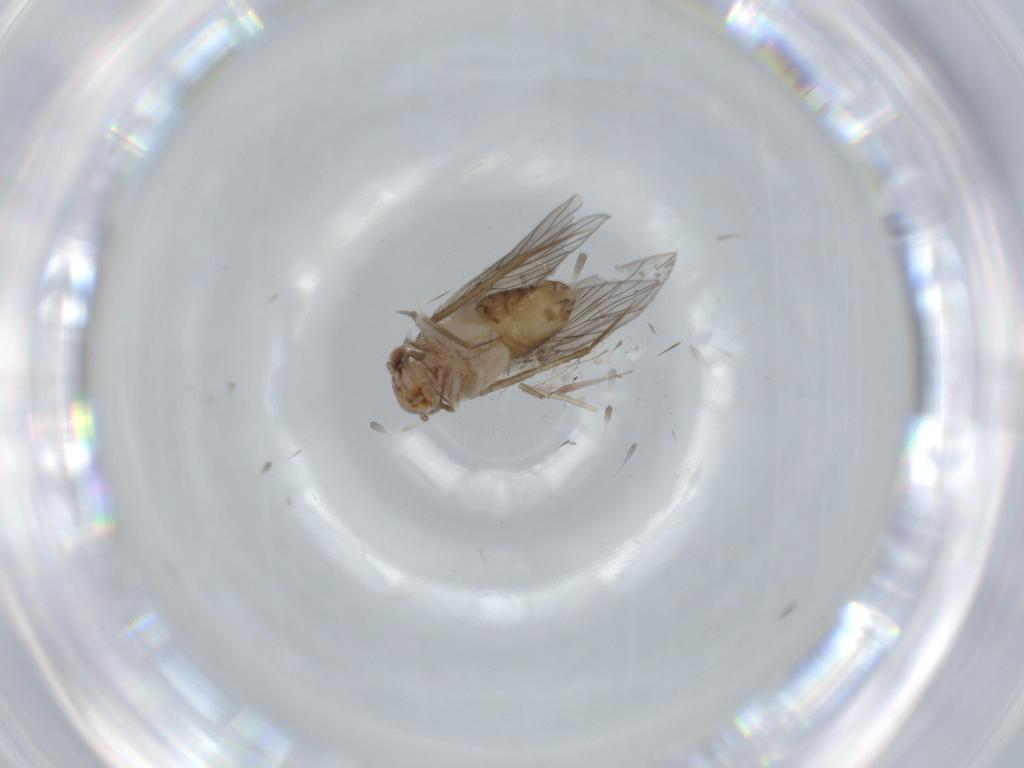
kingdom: Animalia
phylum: Arthropoda
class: Insecta
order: Psocodea
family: Lepidopsocidae
